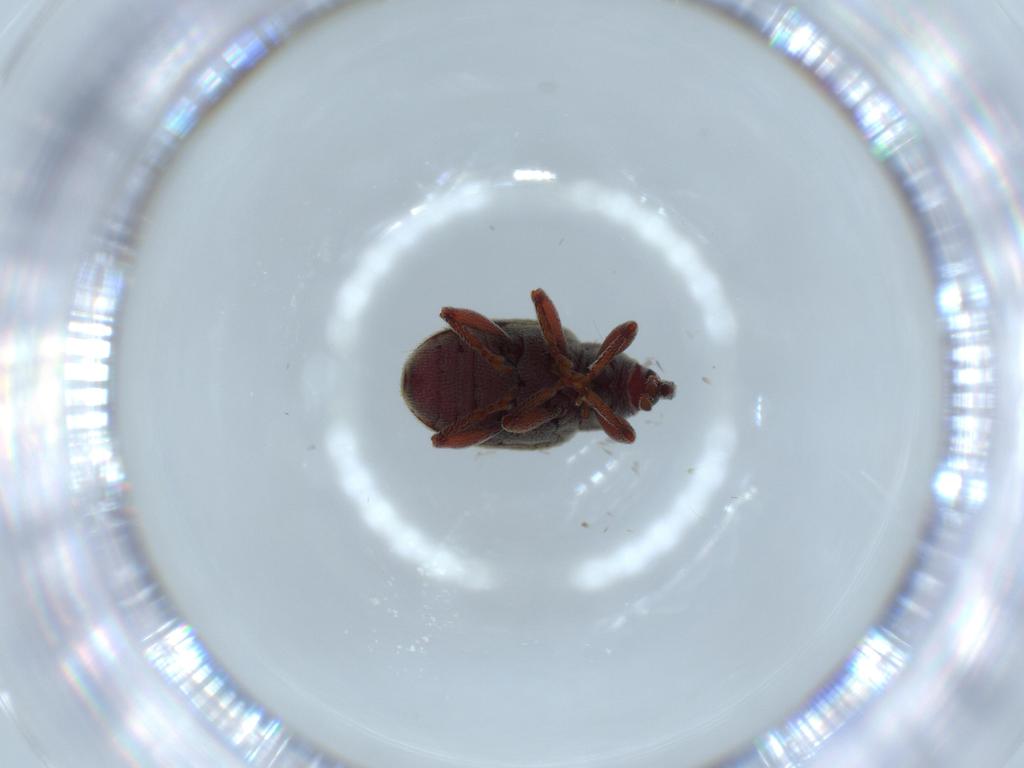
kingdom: Animalia
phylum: Arthropoda
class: Insecta
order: Coleoptera
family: Curculionidae
